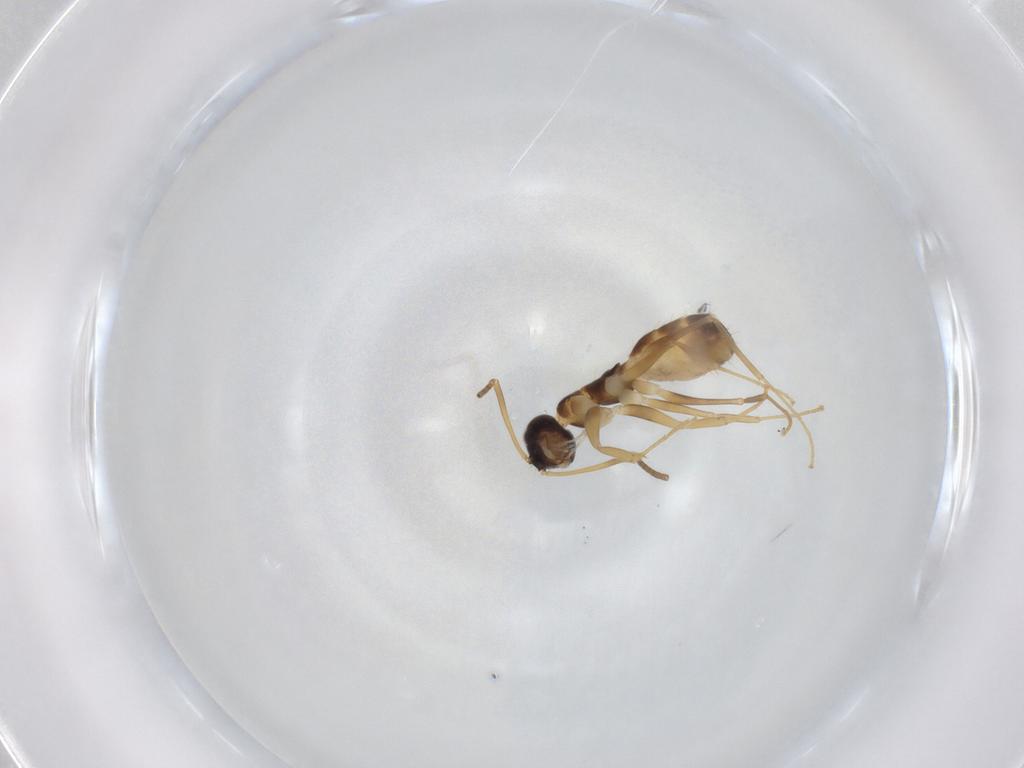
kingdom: Animalia
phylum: Arthropoda
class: Insecta
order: Hymenoptera
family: Formicidae
